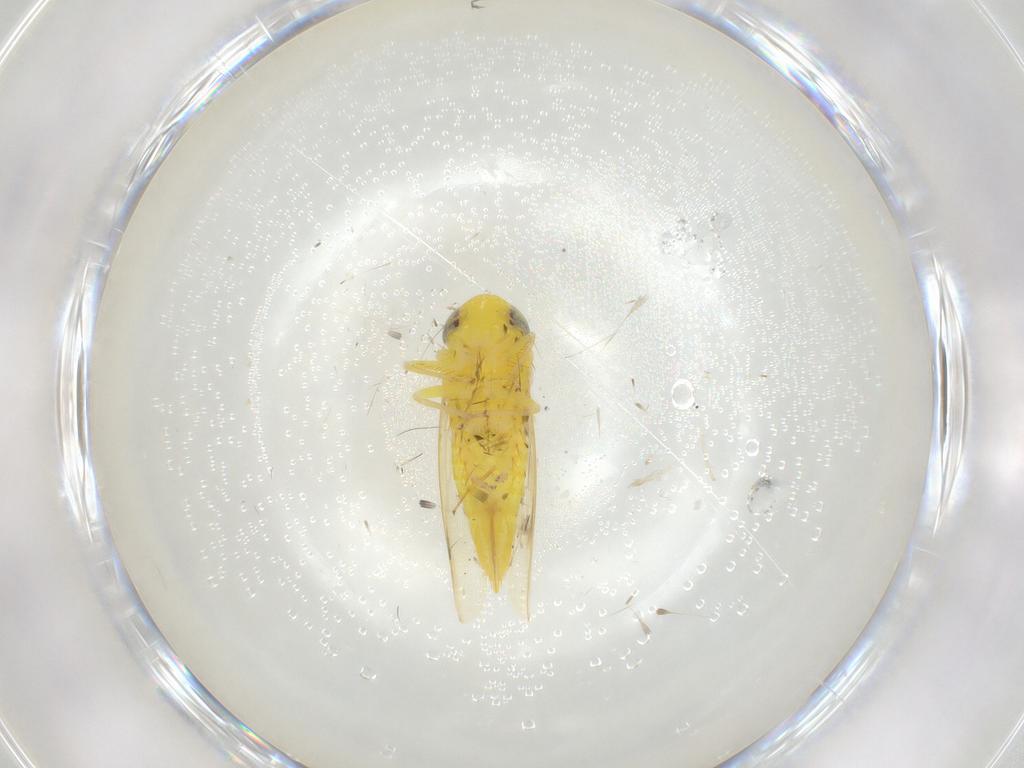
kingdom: Animalia
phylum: Arthropoda
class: Insecta
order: Hemiptera
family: Cicadellidae
